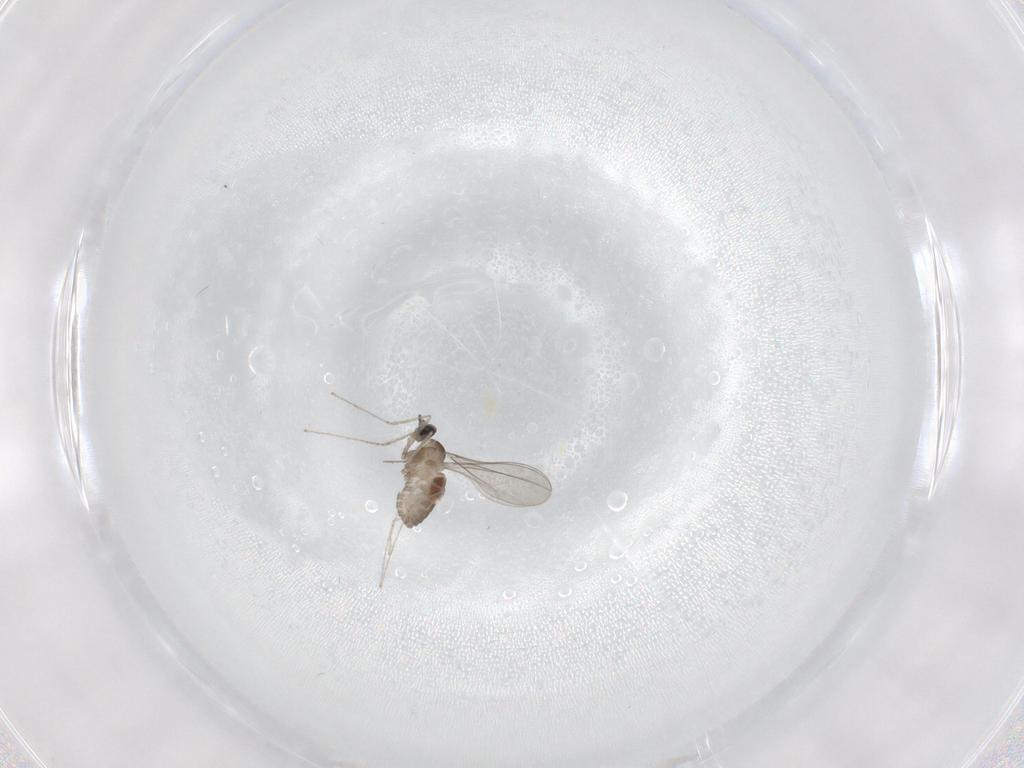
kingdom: Animalia
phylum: Arthropoda
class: Insecta
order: Diptera
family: Cecidomyiidae
